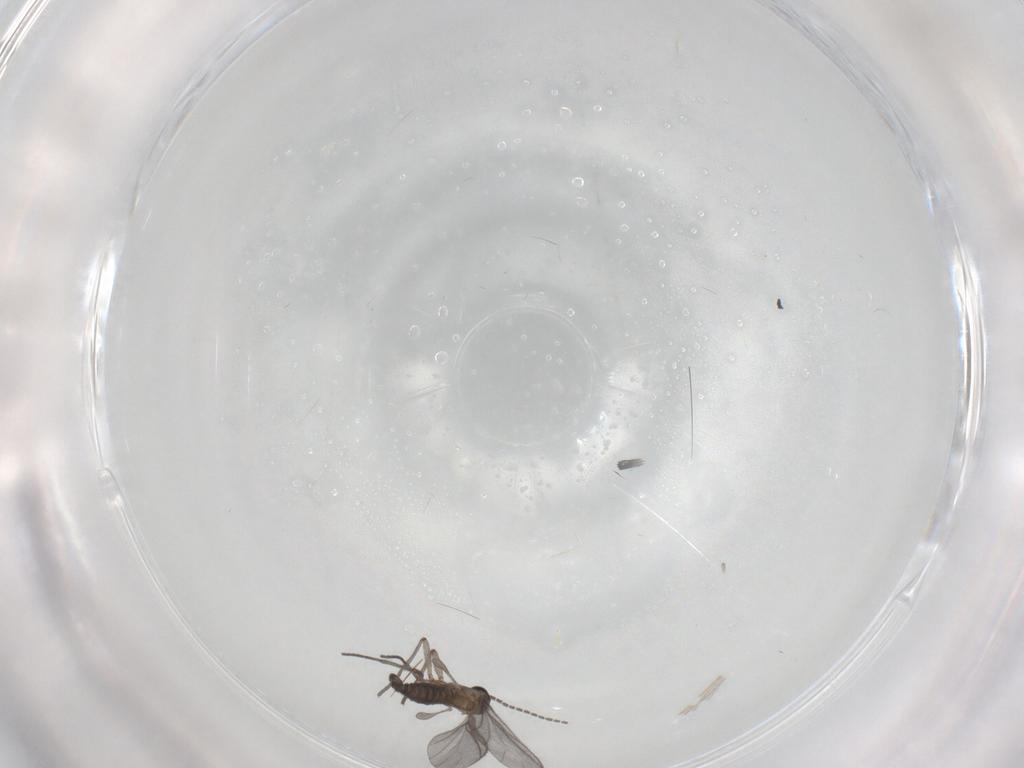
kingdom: Animalia
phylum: Arthropoda
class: Insecta
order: Diptera
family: Sciaridae
